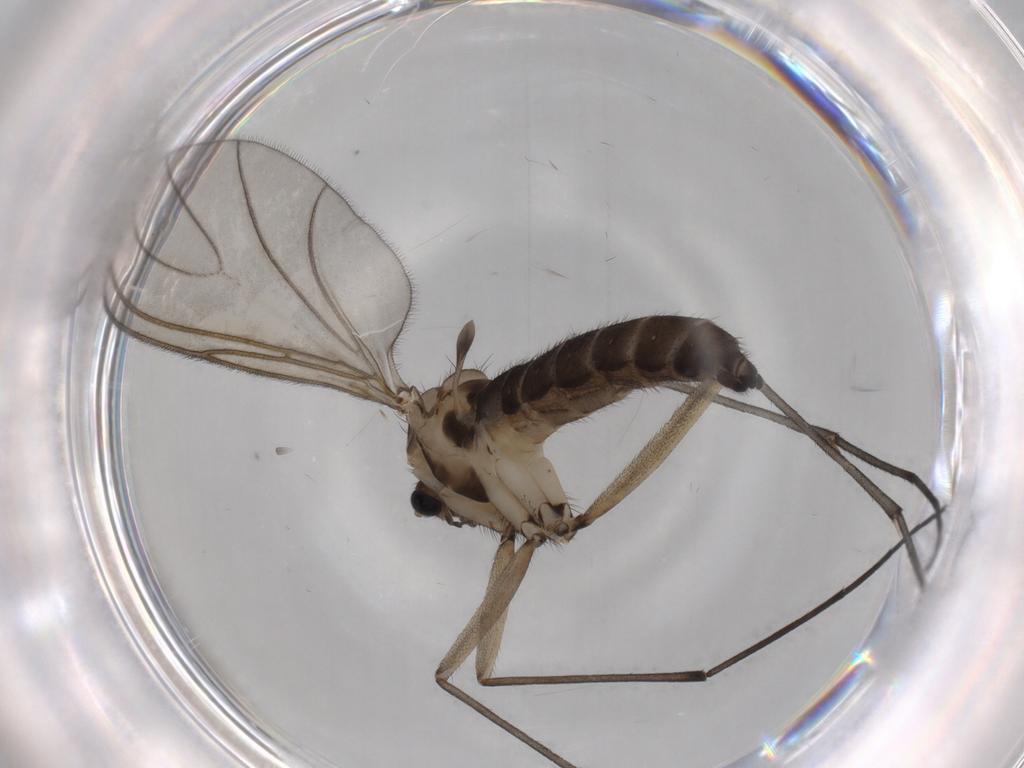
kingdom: Animalia
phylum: Arthropoda
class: Insecta
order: Diptera
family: Sciaridae
